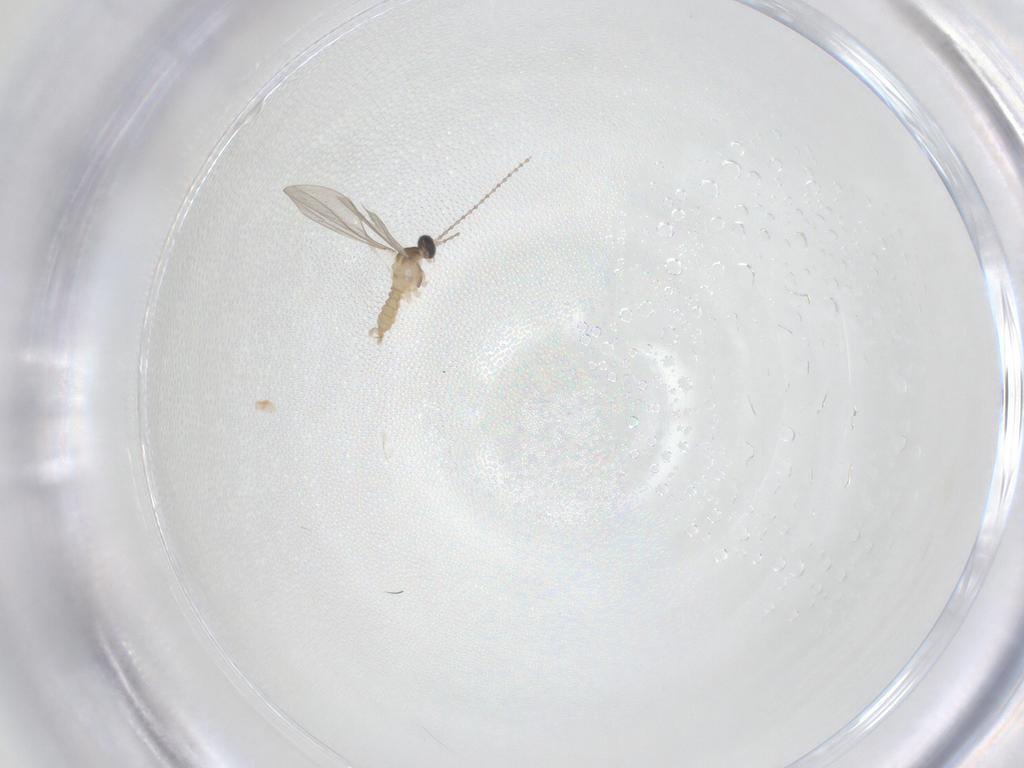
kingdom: Animalia
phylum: Arthropoda
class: Insecta
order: Diptera
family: Cecidomyiidae
